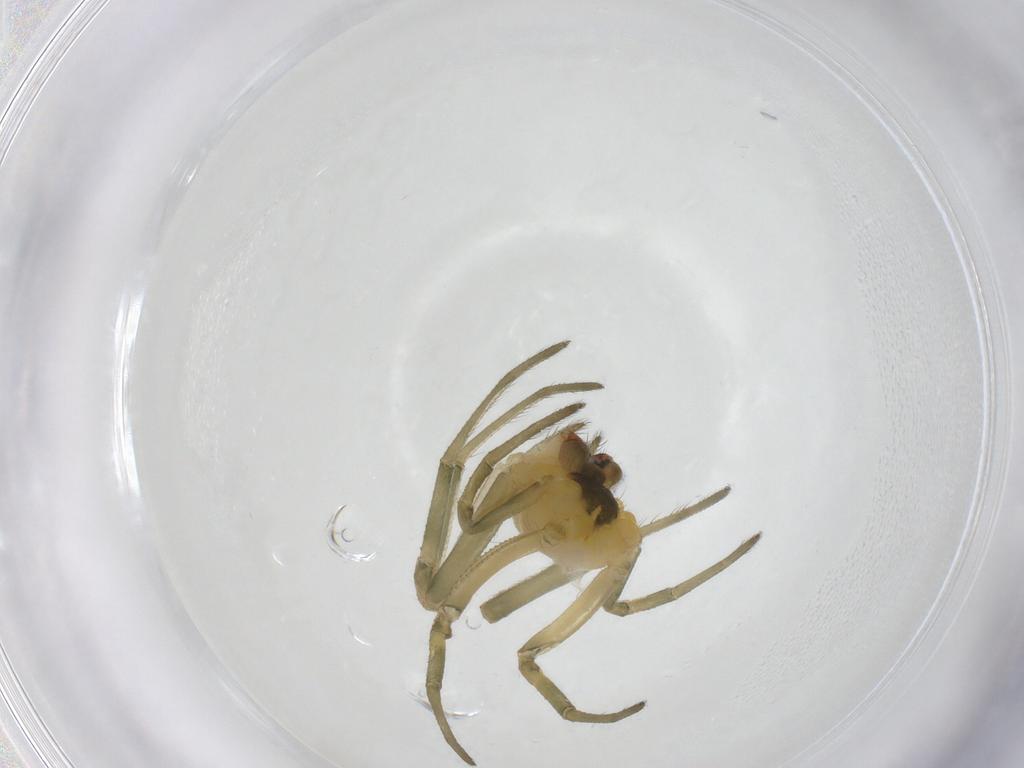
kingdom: Animalia
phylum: Arthropoda
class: Arachnida
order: Araneae
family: Tetragnathidae
